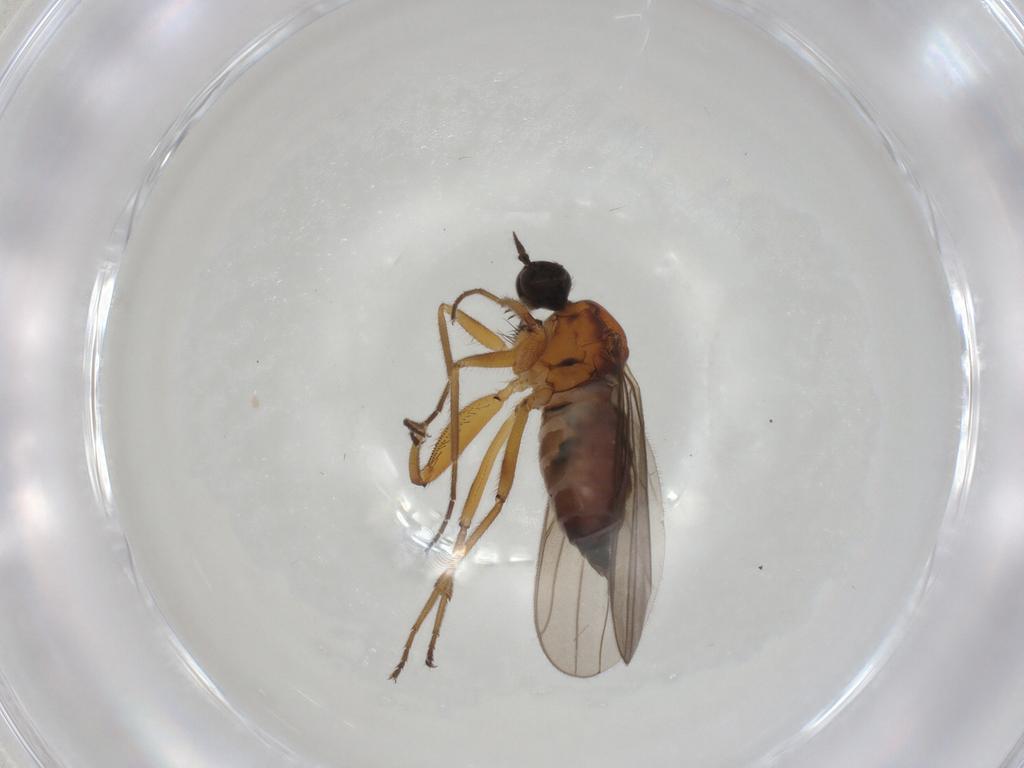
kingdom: Animalia
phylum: Arthropoda
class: Insecta
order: Diptera
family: Hybotidae
